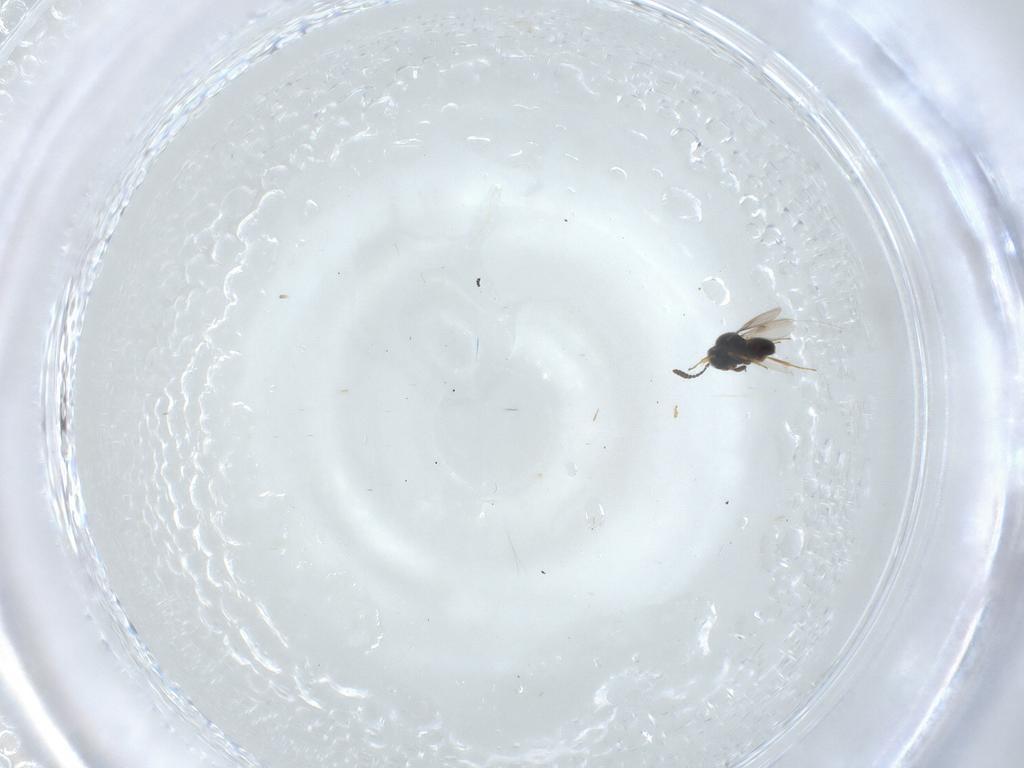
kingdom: Animalia
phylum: Arthropoda
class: Insecta
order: Hymenoptera
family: Scelionidae
